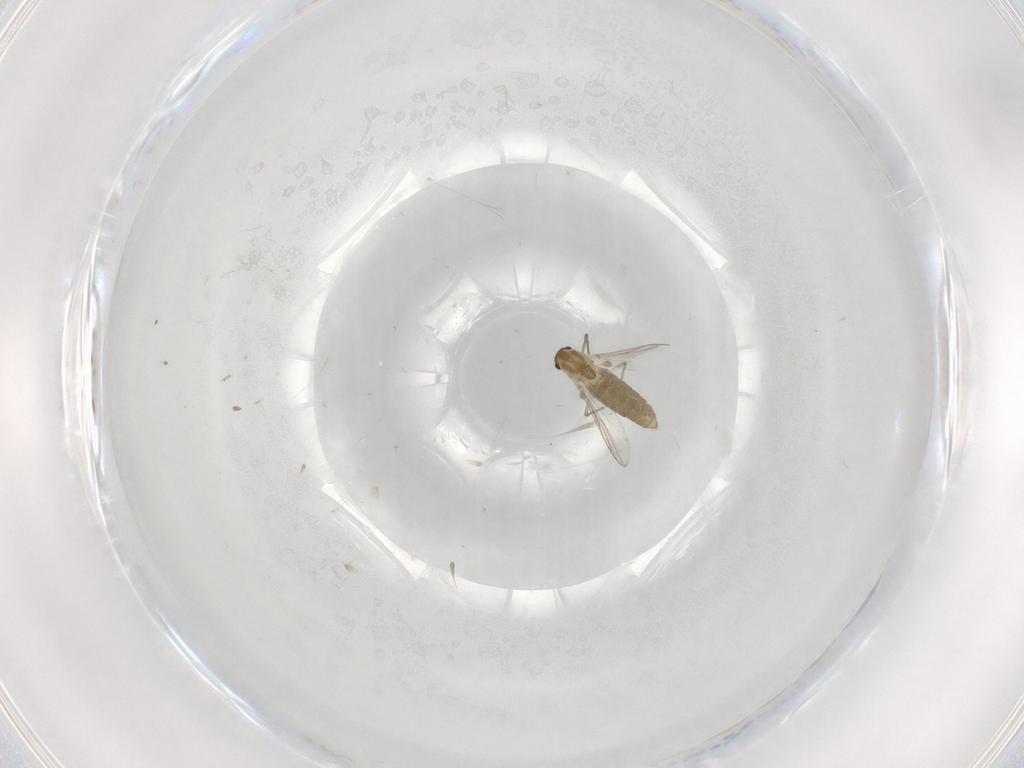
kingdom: Animalia
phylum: Arthropoda
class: Insecta
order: Diptera
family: Chironomidae
